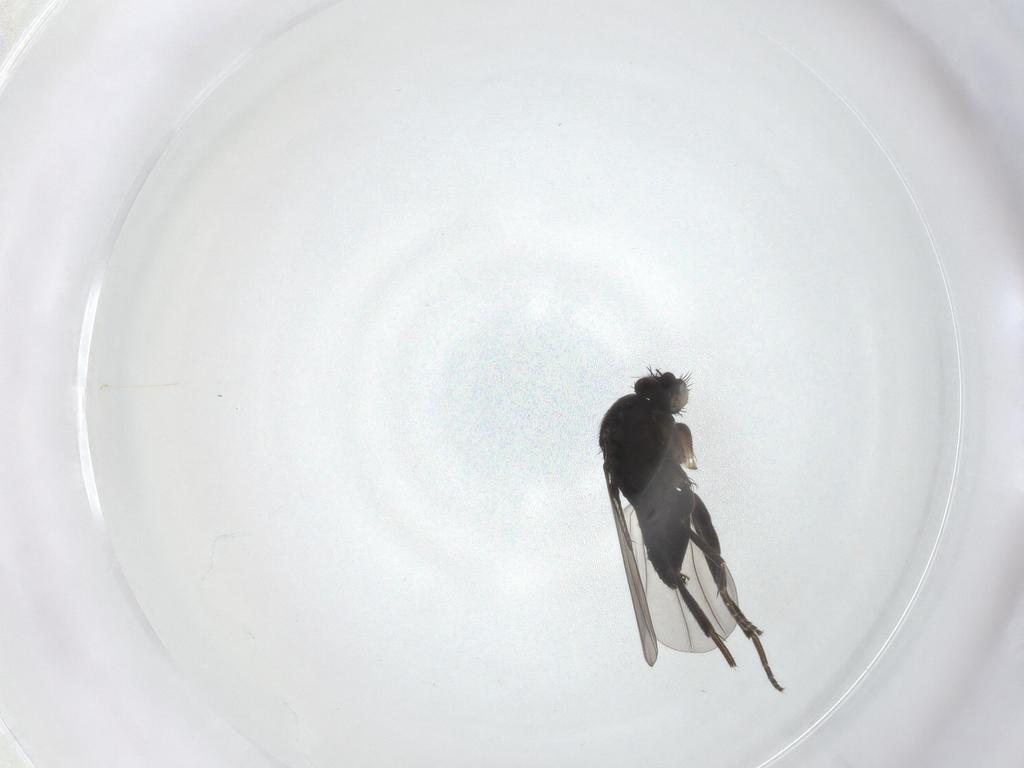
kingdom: Animalia
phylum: Arthropoda
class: Insecta
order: Diptera
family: Phoridae
